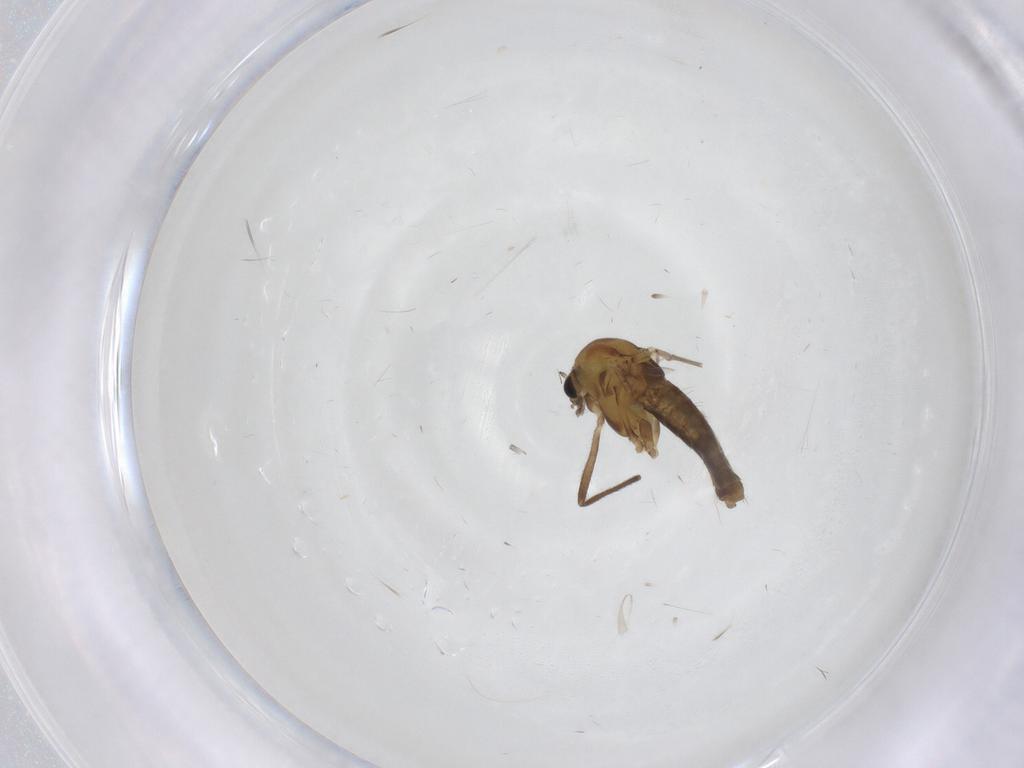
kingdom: Animalia
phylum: Arthropoda
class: Insecta
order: Diptera
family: Chironomidae
